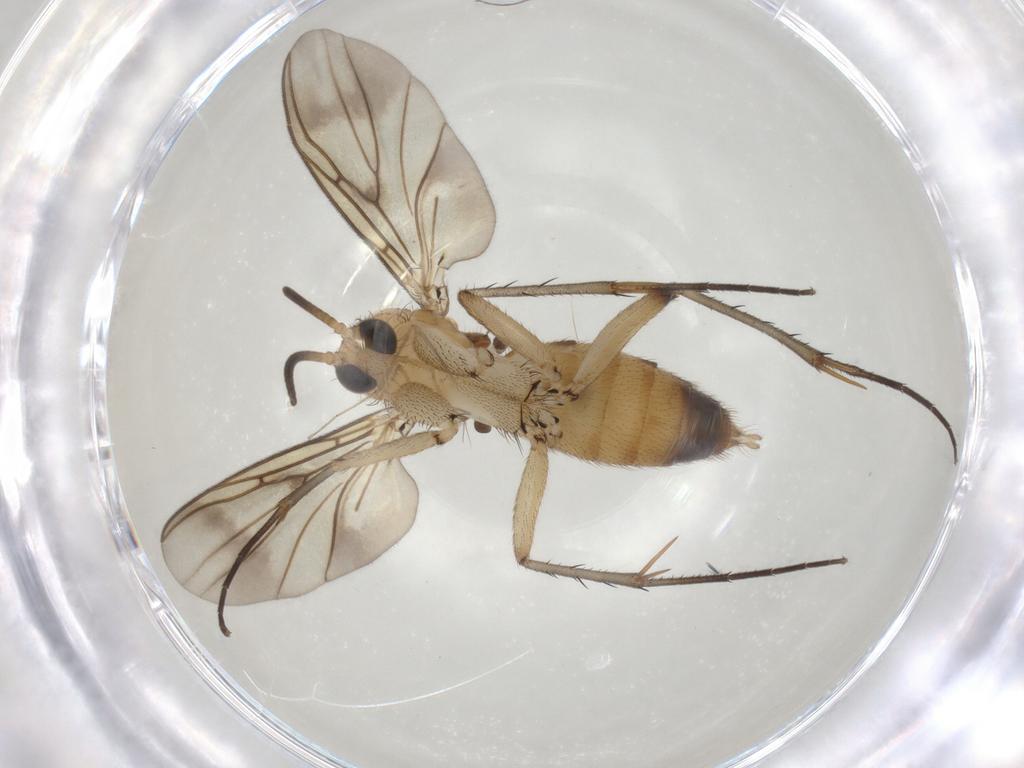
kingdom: Animalia
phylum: Arthropoda
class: Insecta
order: Diptera
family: Mycetophilidae
